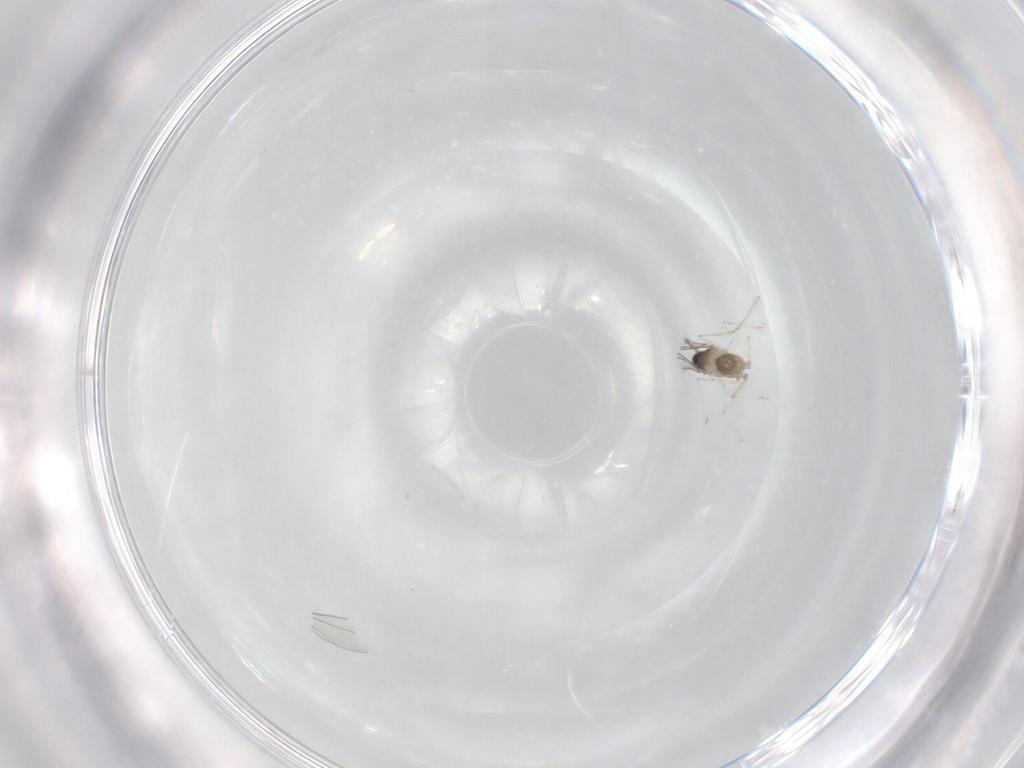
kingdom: Animalia
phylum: Arthropoda
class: Insecta
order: Diptera
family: Cecidomyiidae
